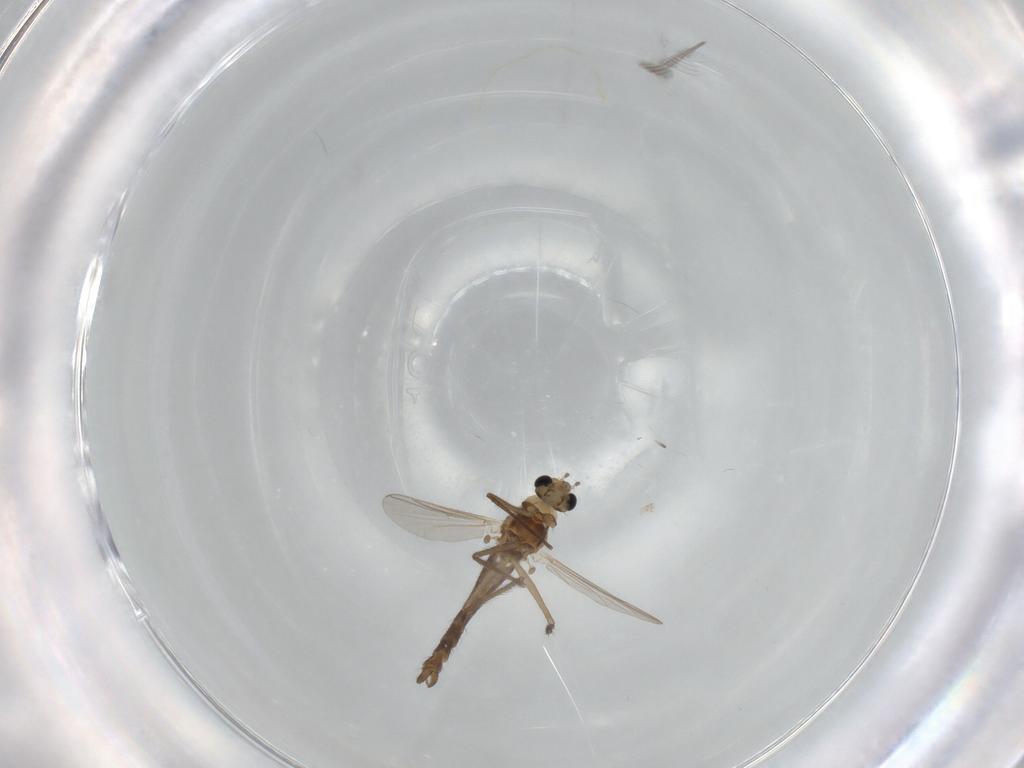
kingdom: Animalia
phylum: Arthropoda
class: Insecta
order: Diptera
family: Chironomidae
